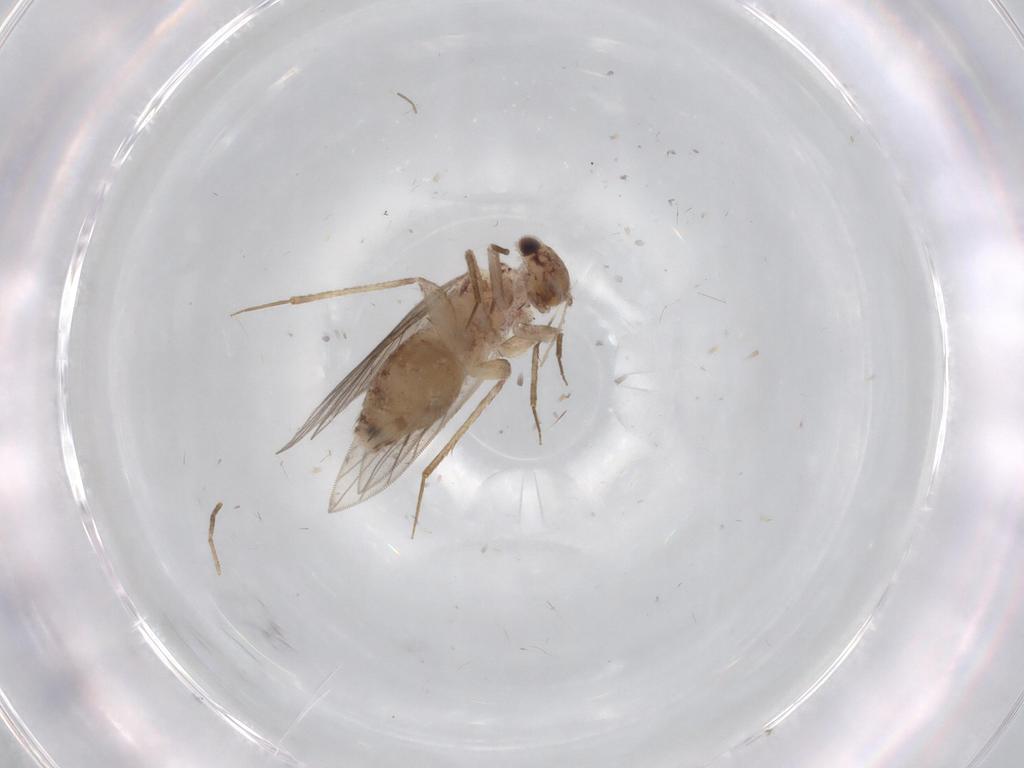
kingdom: Animalia
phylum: Arthropoda
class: Insecta
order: Psocodea
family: Lepidopsocidae
